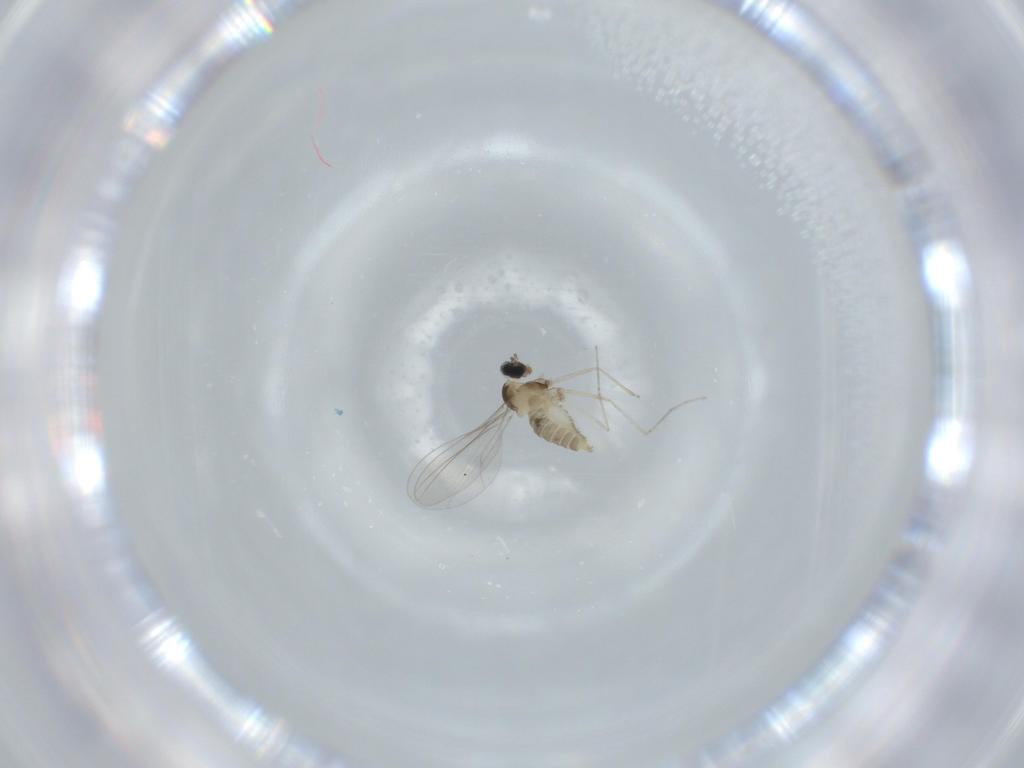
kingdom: Animalia
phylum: Arthropoda
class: Insecta
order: Diptera
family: Cecidomyiidae
